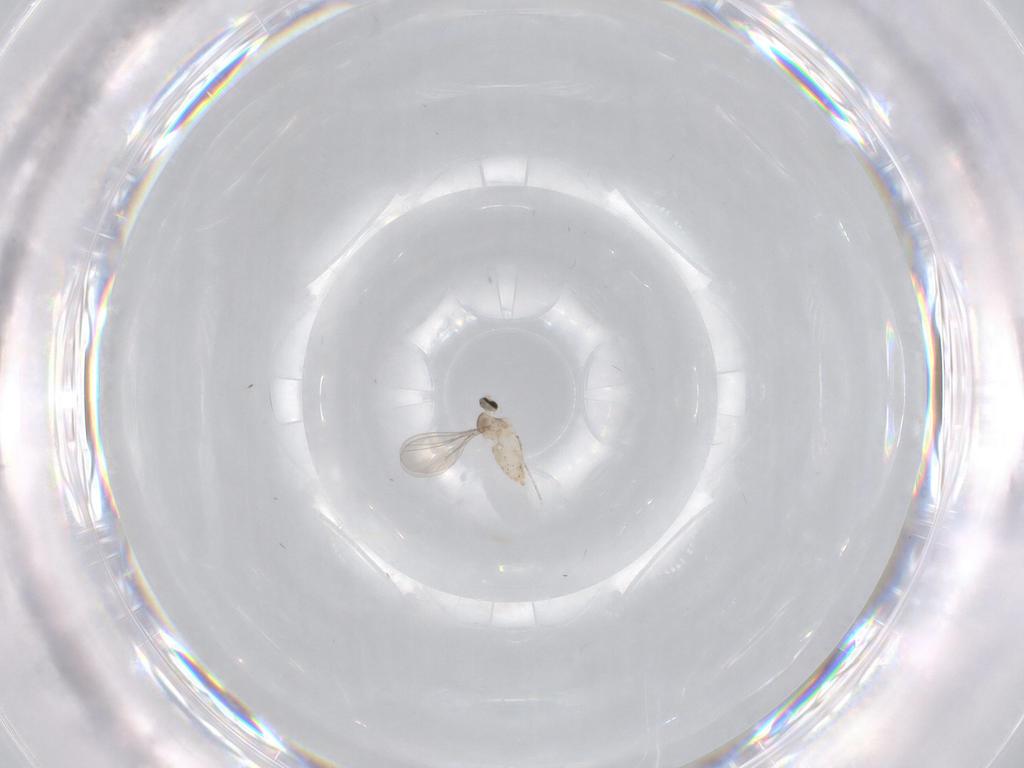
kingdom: Animalia
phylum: Arthropoda
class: Insecta
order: Diptera
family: Cecidomyiidae
